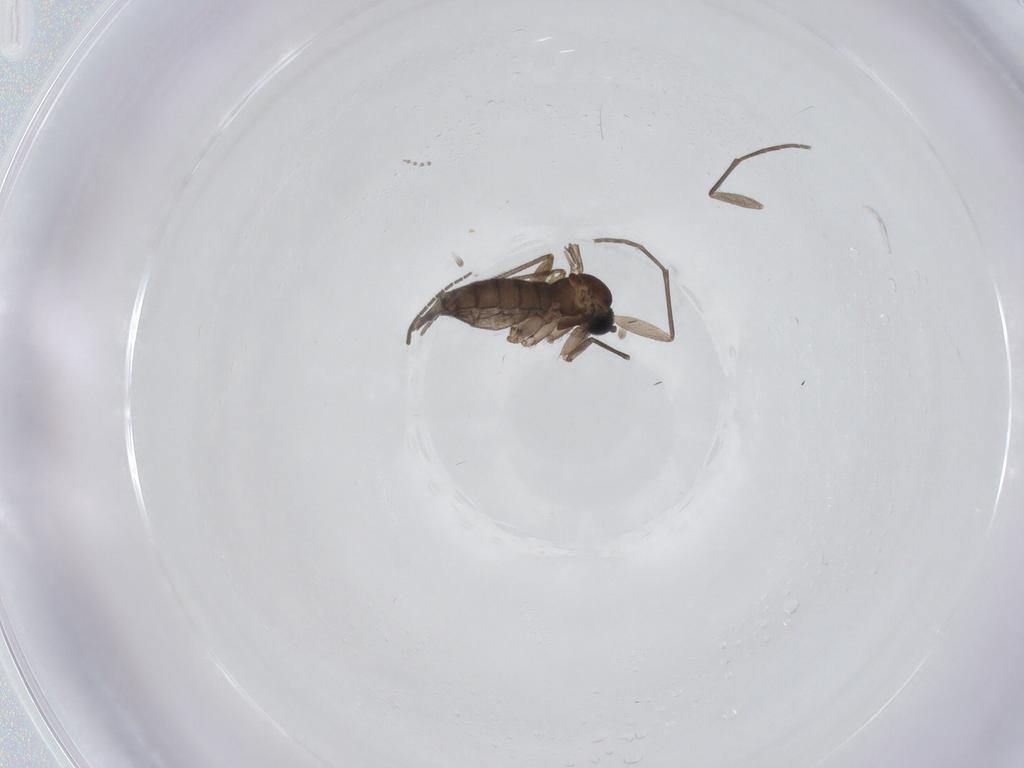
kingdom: Animalia
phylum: Arthropoda
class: Insecta
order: Diptera
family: Sciaridae
